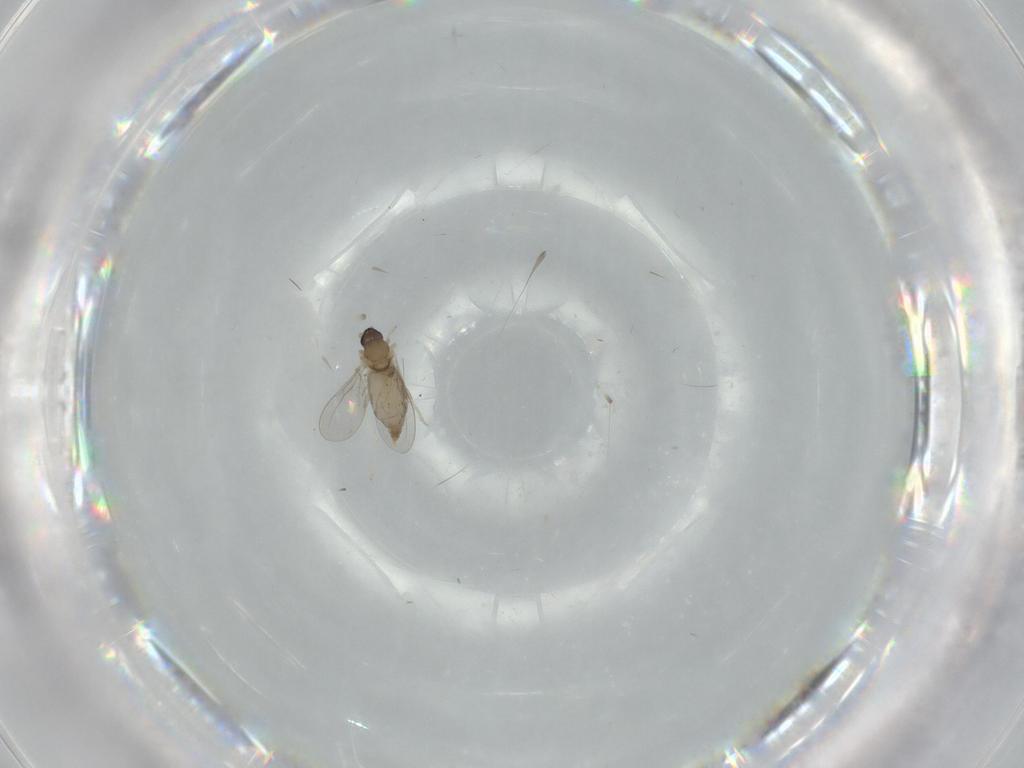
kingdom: Animalia
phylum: Arthropoda
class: Insecta
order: Diptera
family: Cecidomyiidae
